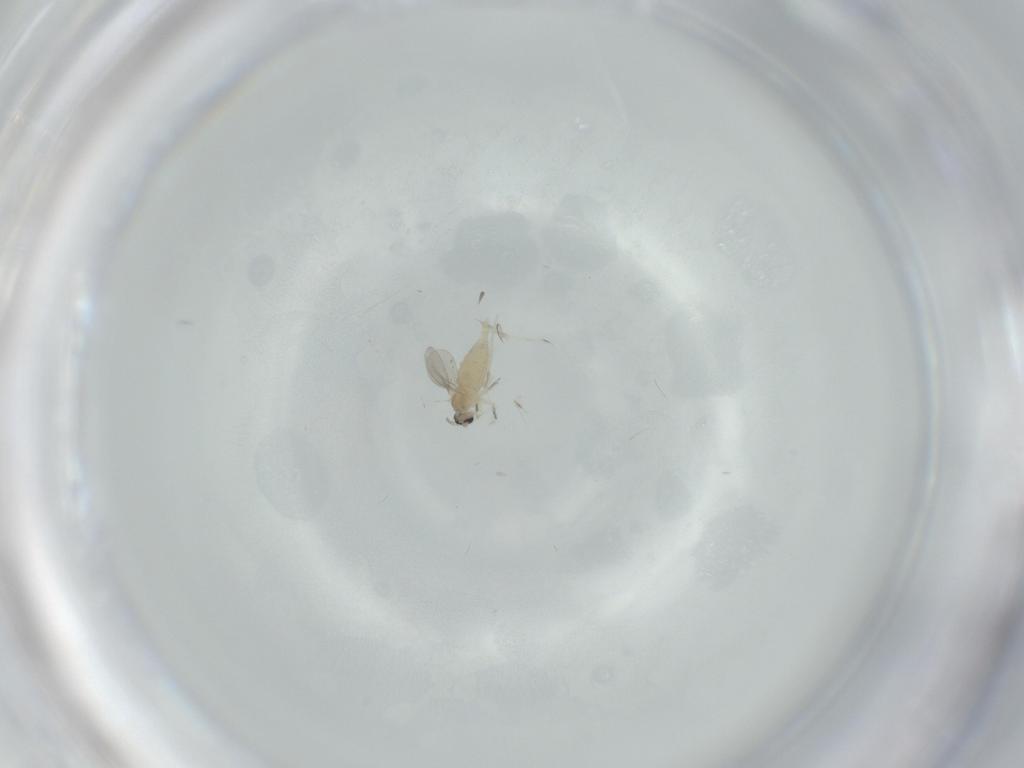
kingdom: Animalia
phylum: Arthropoda
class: Insecta
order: Diptera
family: Cecidomyiidae
